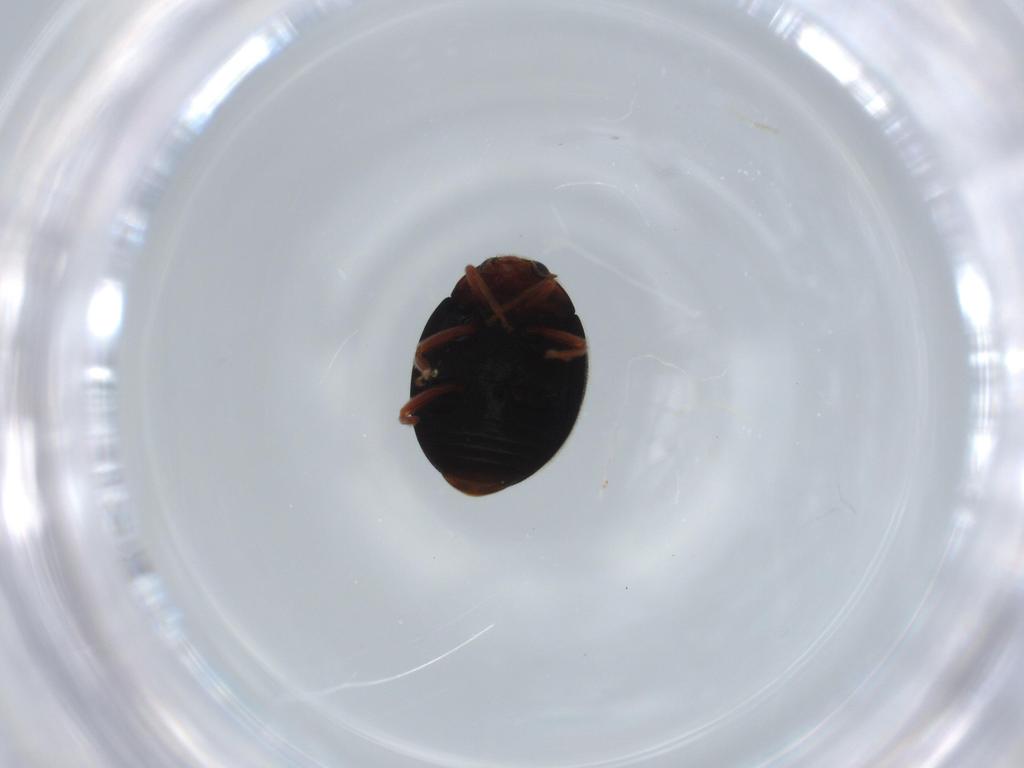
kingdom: Animalia
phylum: Arthropoda
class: Insecta
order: Coleoptera
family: Coccinellidae
